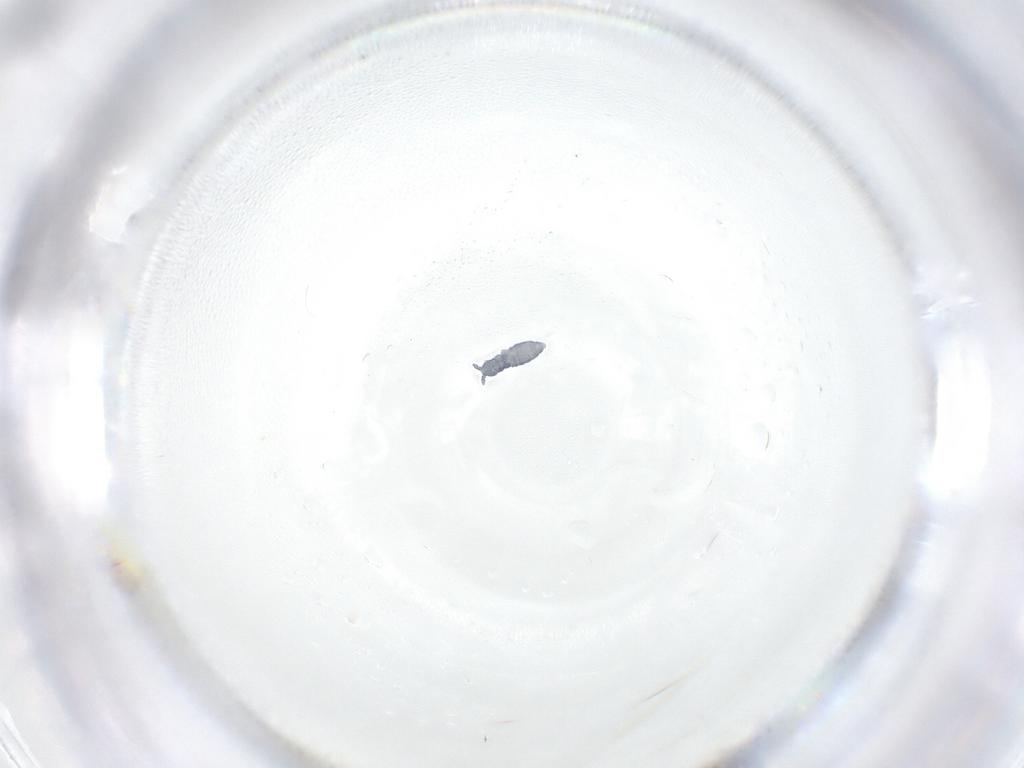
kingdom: Animalia
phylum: Arthropoda
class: Collembola
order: Poduromorpha
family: Hypogastruridae
